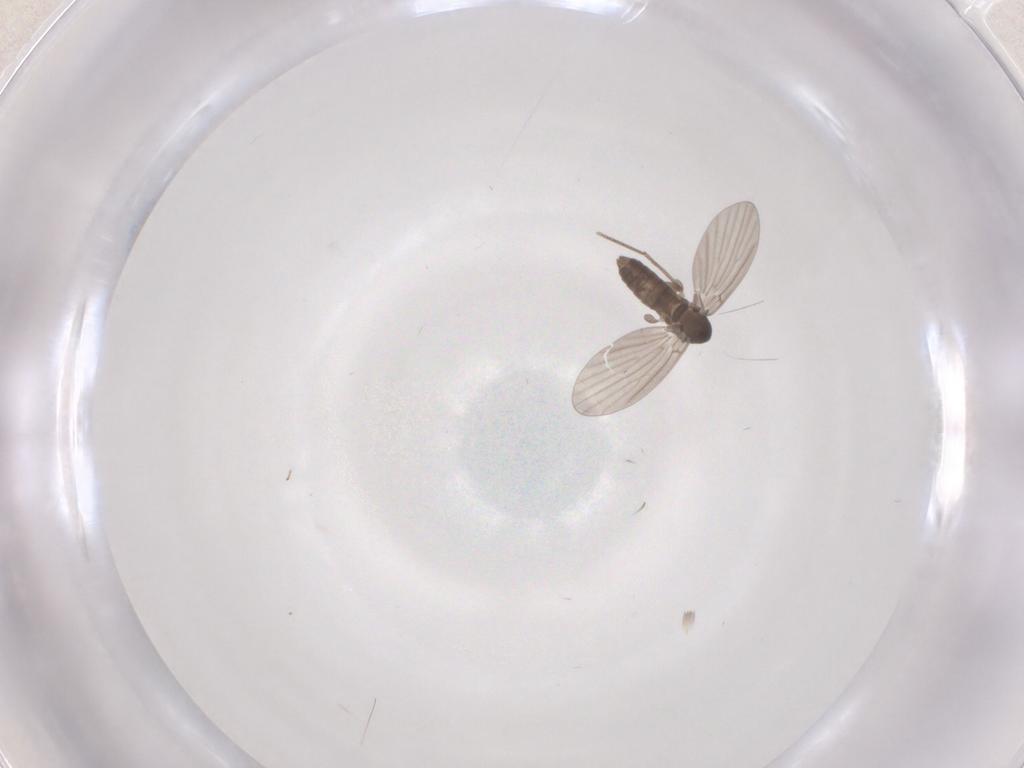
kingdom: Animalia
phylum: Arthropoda
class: Insecta
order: Diptera
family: Psychodidae
